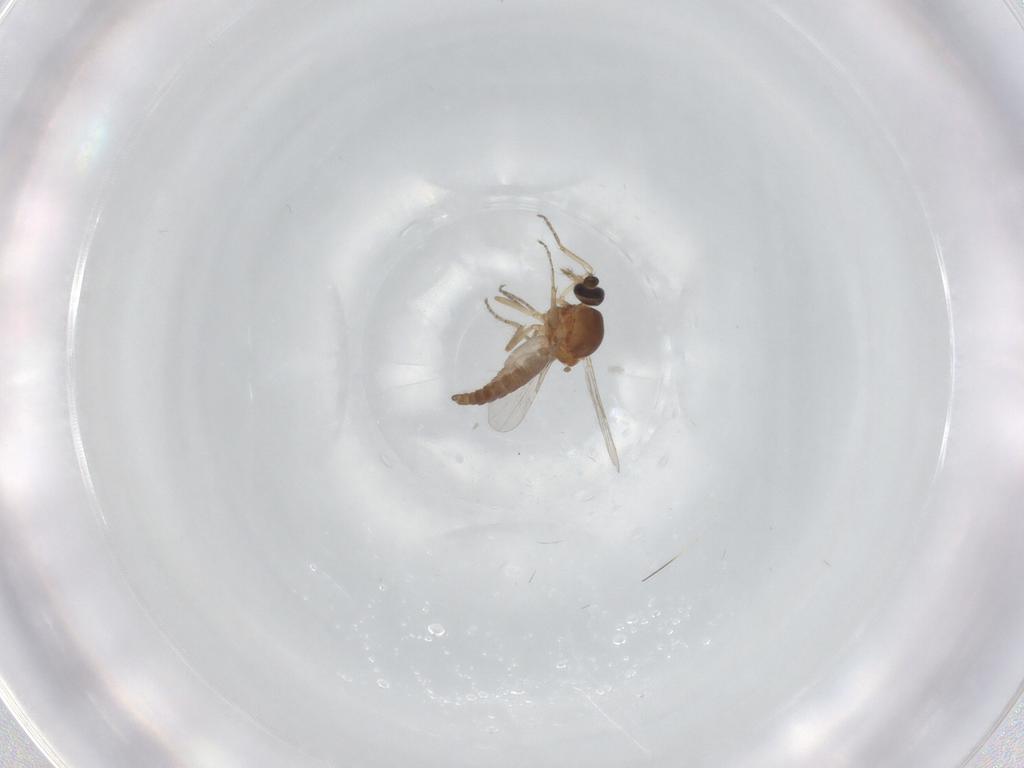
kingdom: Animalia
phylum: Arthropoda
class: Insecta
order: Diptera
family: Ceratopogonidae
